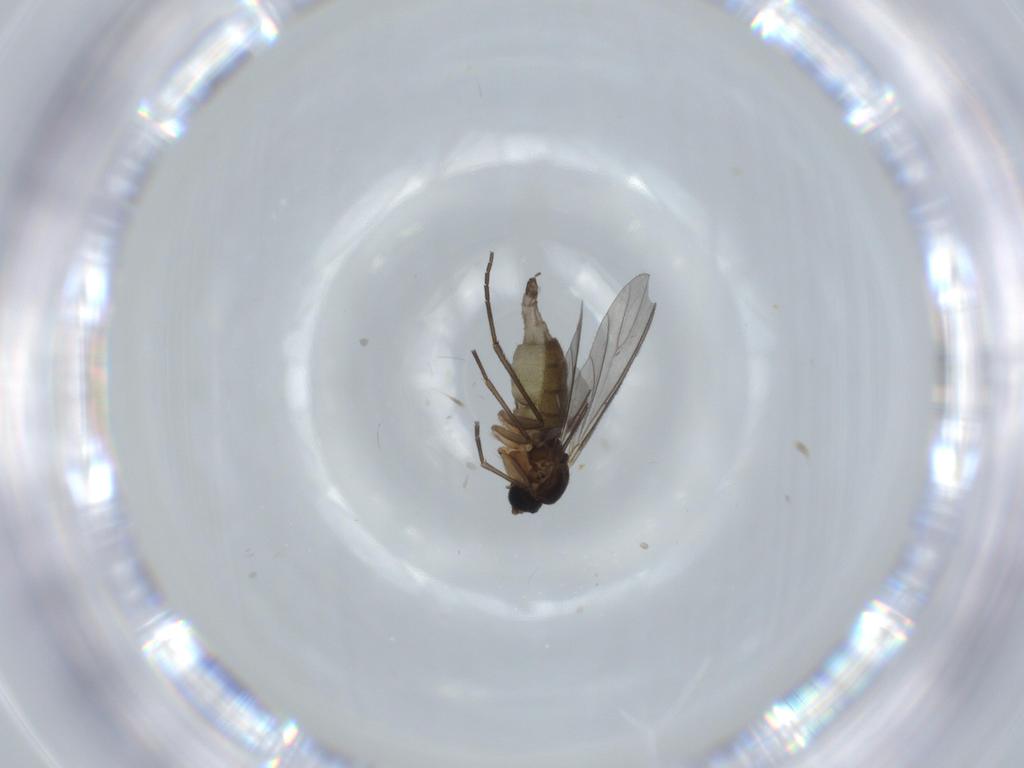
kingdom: Animalia
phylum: Arthropoda
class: Insecta
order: Diptera
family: Sciaridae
